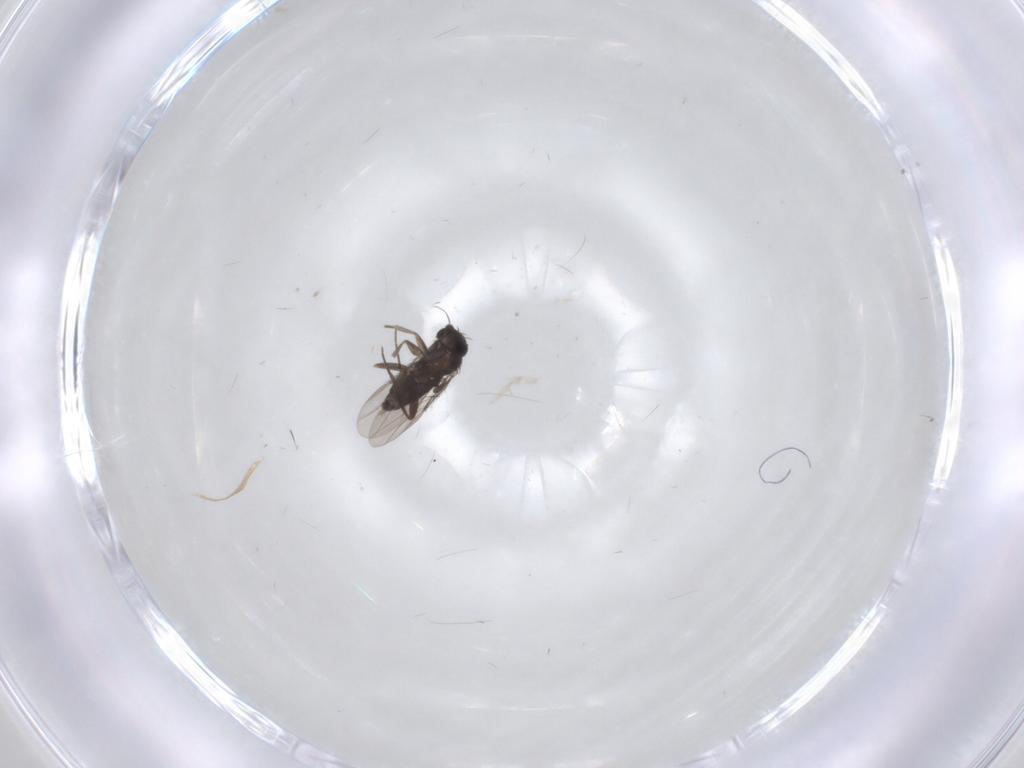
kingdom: Animalia
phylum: Arthropoda
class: Insecta
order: Diptera
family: Phoridae
